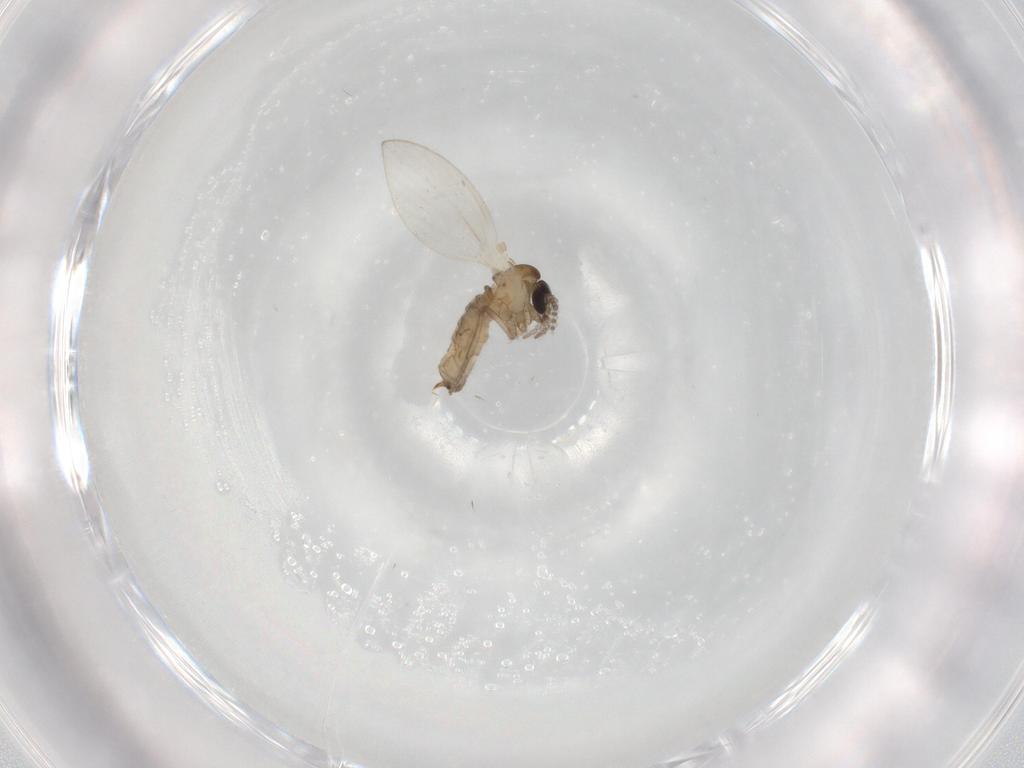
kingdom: Animalia
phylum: Arthropoda
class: Insecta
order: Diptera
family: Psychodidae
